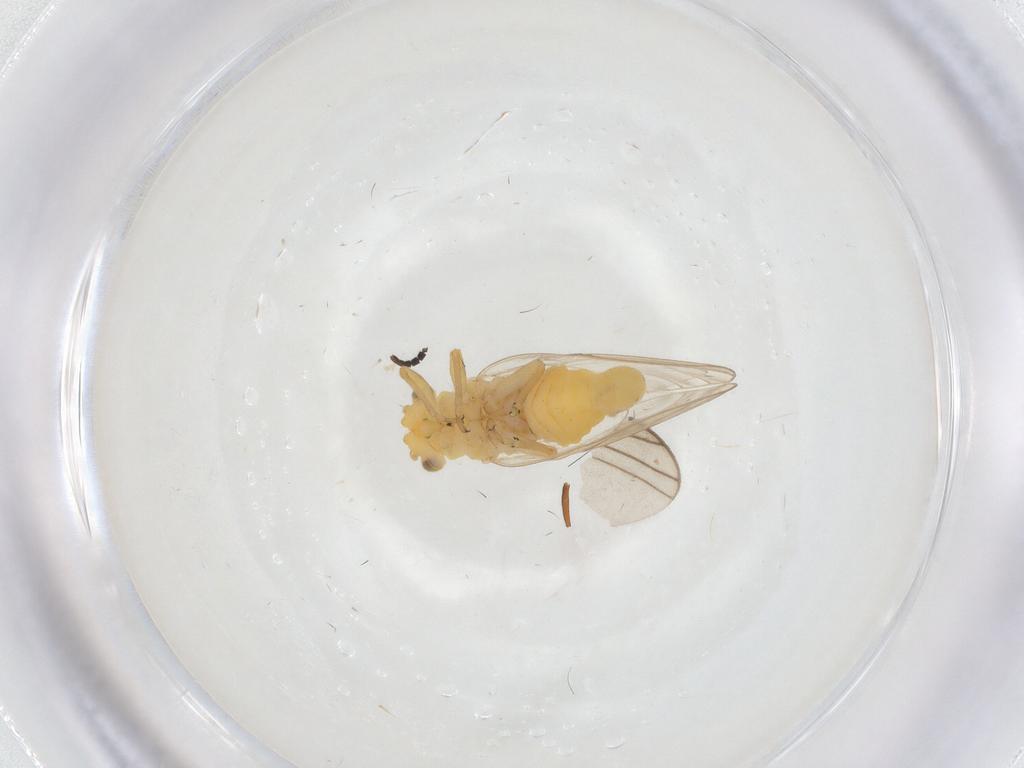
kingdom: Animalia
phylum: Arthropoda
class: Insecta
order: Hemiptera
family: Psyllidae
